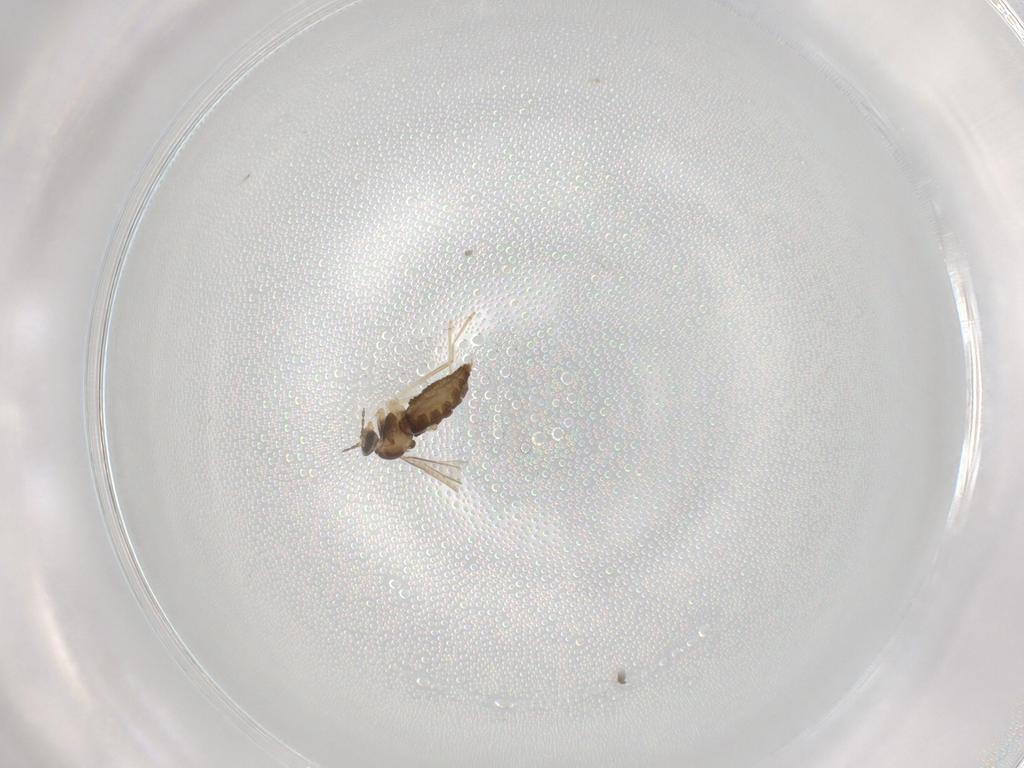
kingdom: Animalia
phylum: Arthropoda
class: Insecta
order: Diptera
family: Cecidomyiidae
